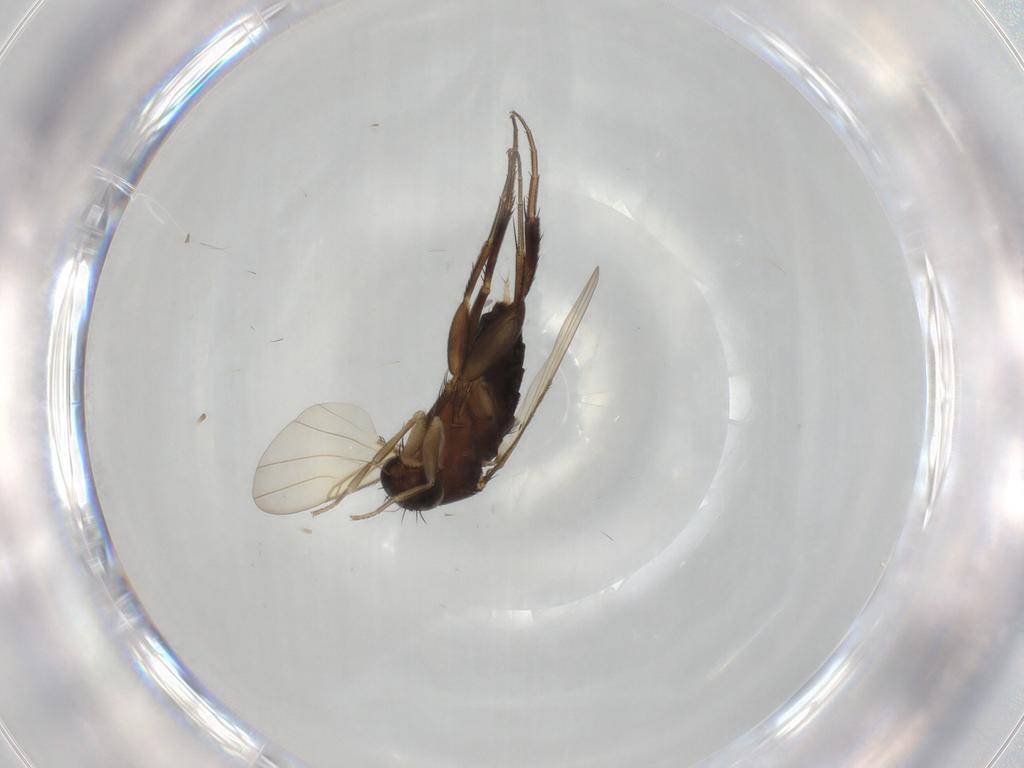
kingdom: Animalia
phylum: Arthropoda
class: Insecta
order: Diptera
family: Phoridae
